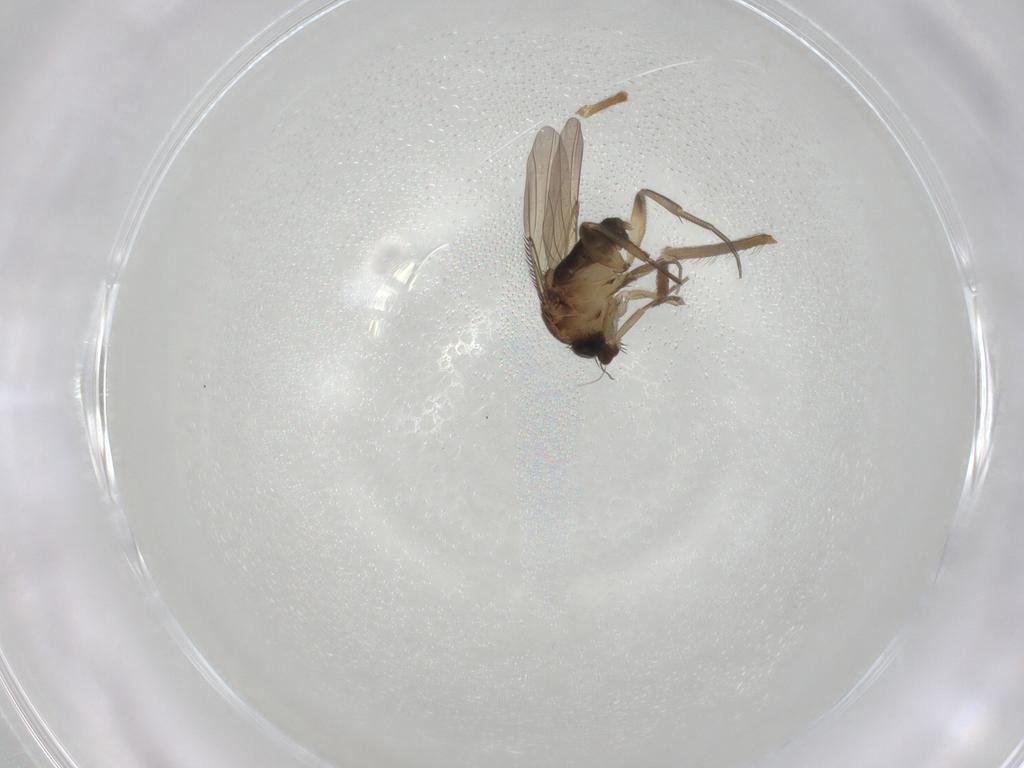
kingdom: Animalia
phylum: Arthropoda
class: Insecta
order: Diptera
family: Phoridae
